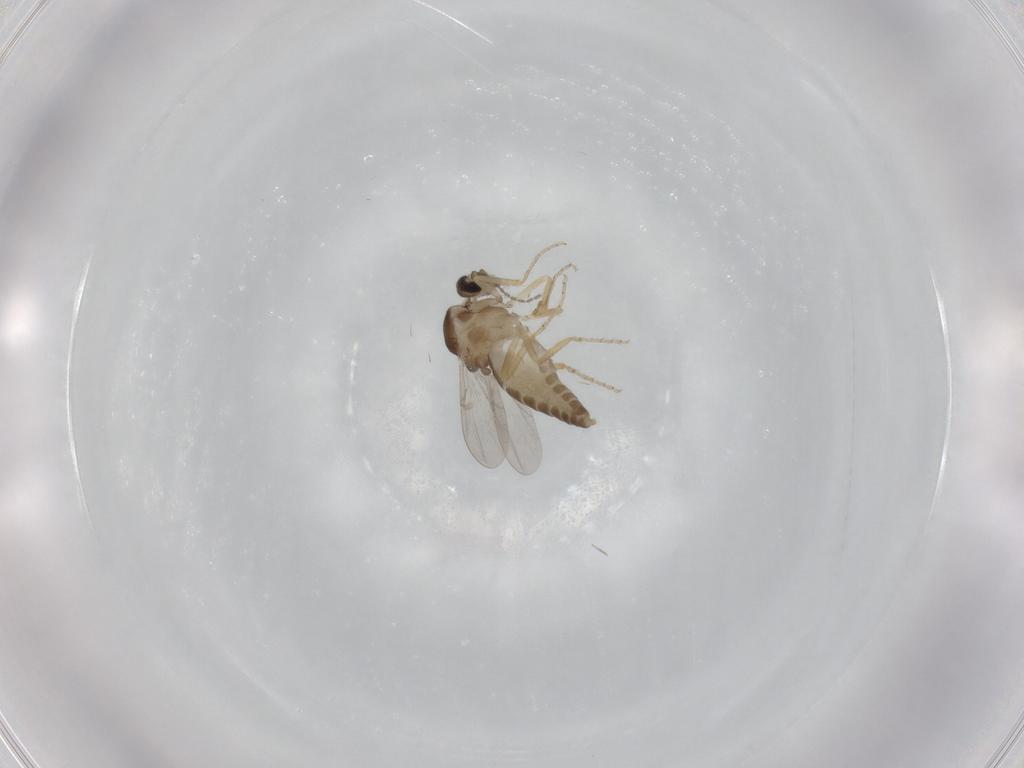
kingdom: Animalia
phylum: Arthropoda
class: Insecta
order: Diptera
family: Ceratopogonidae
